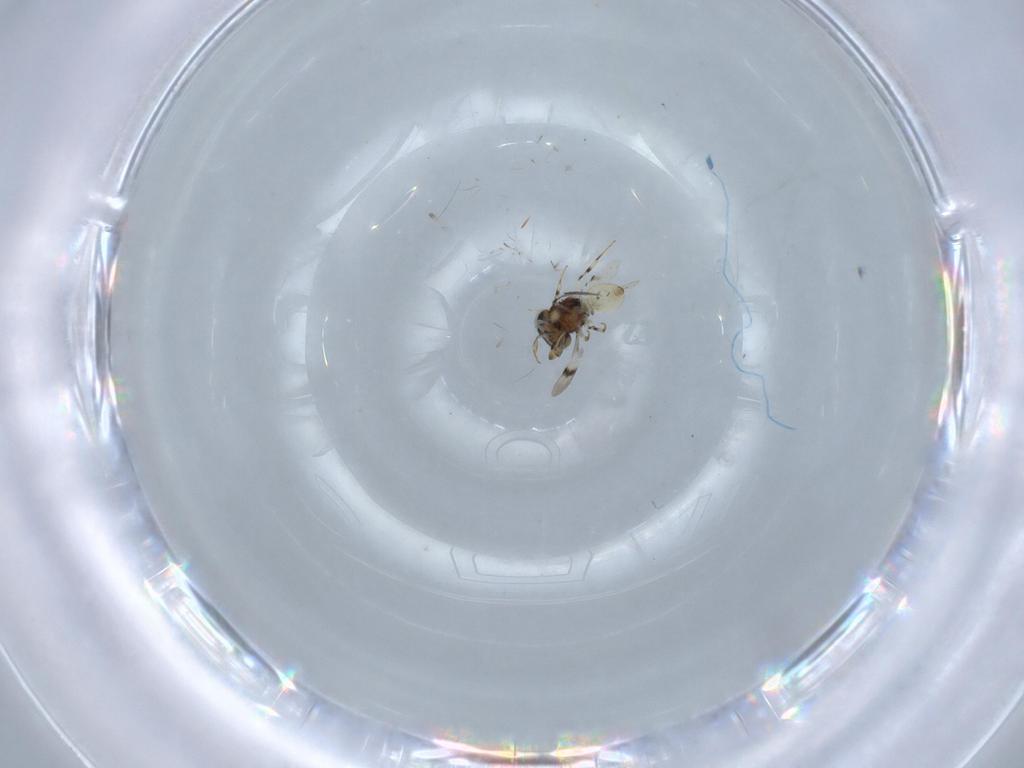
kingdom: Animalia
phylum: Arthropoda
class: Insecta
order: Hymenoptera
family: Scelionidae
